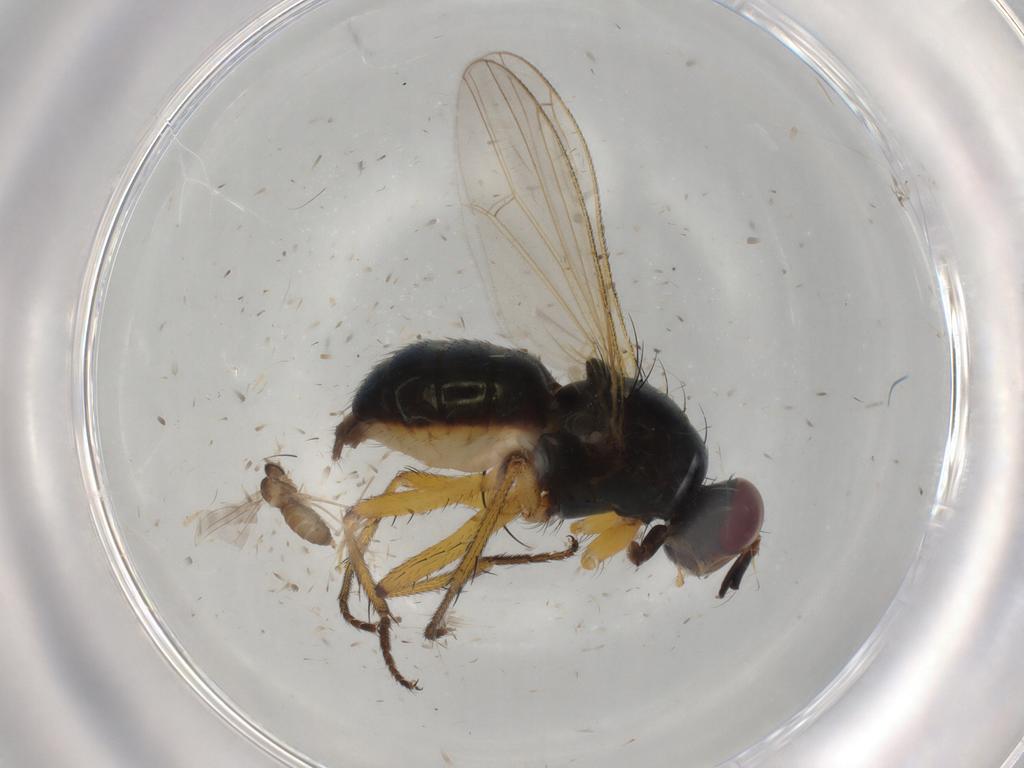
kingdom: Animalia
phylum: Arthropoda
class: Insecta
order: Diptera
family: Muscidae
